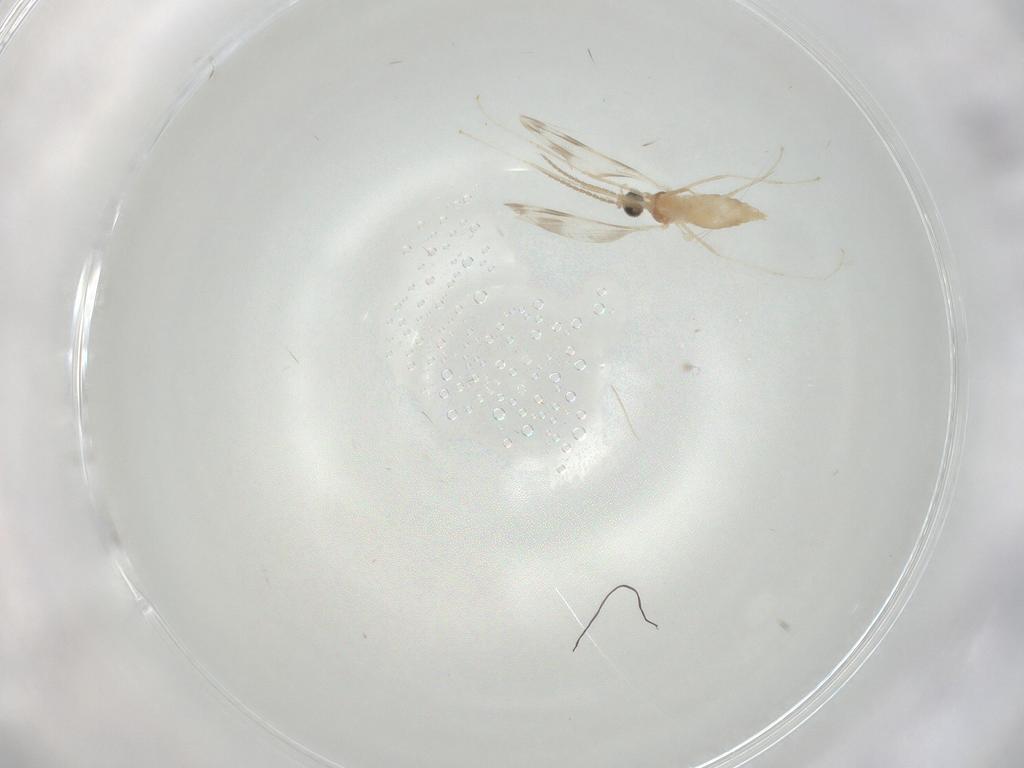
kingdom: Animalia
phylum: Arthropoda
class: Insecta
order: Diptera
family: Cecidomyiidae
